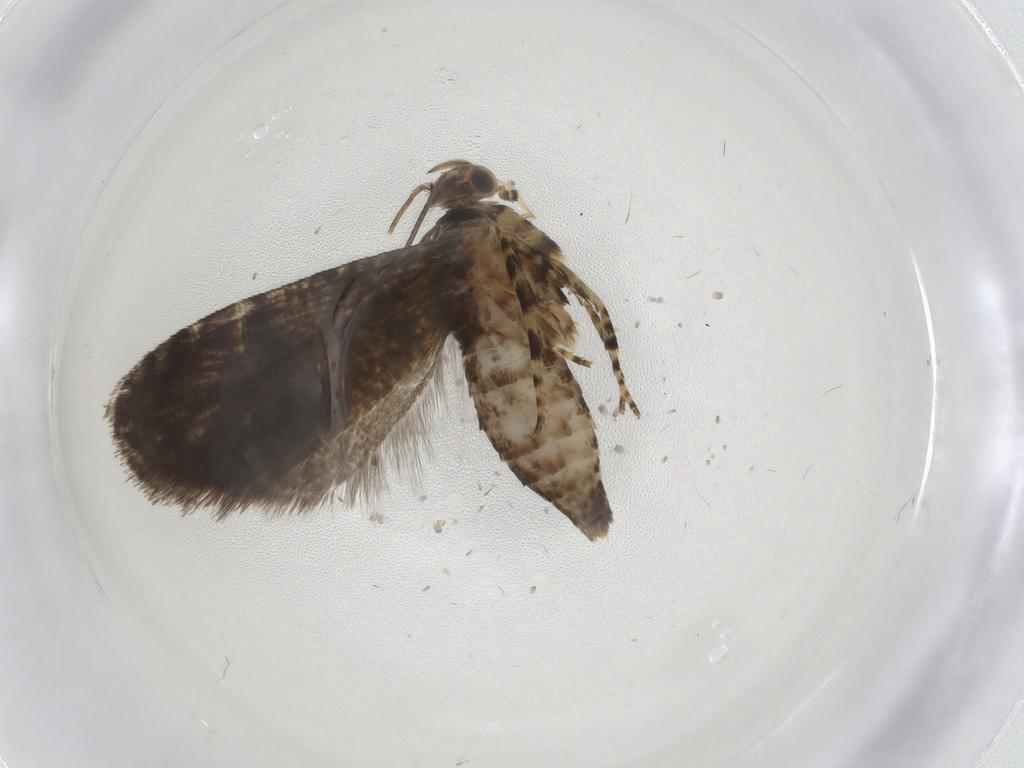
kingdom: Animalia
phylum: Arthropoda
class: Insecta
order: Lepidoptera
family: Geometridae
